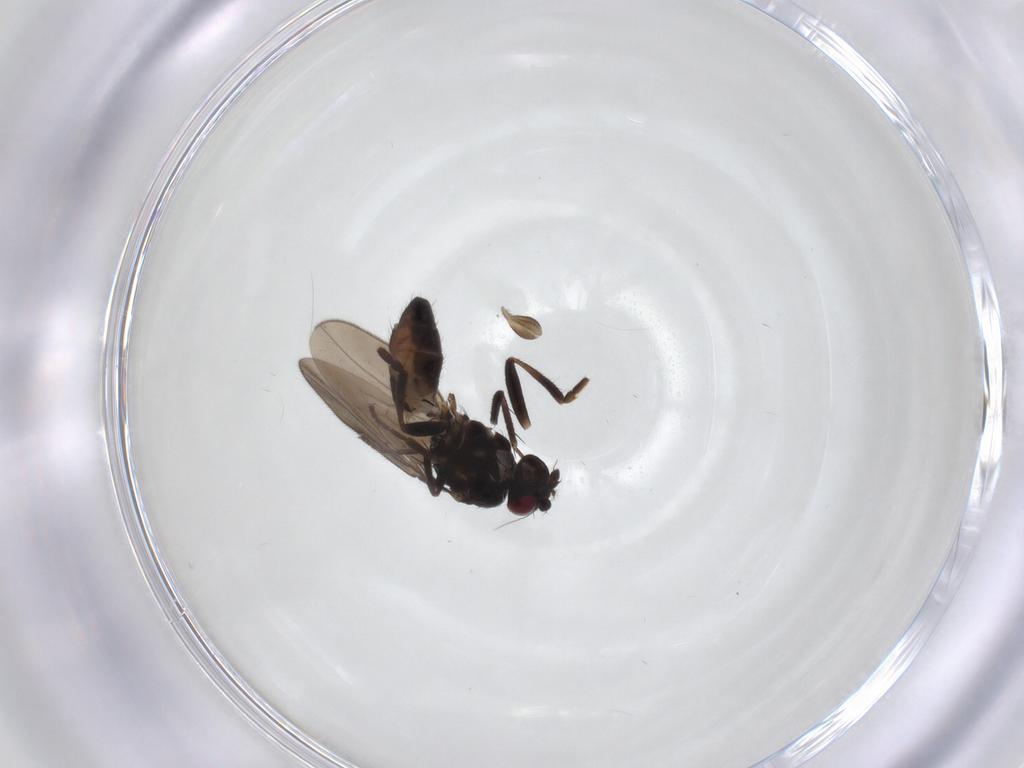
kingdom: Animalia
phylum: Arthropoda
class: Insecta
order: Diptera
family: Sphaeroceridae
